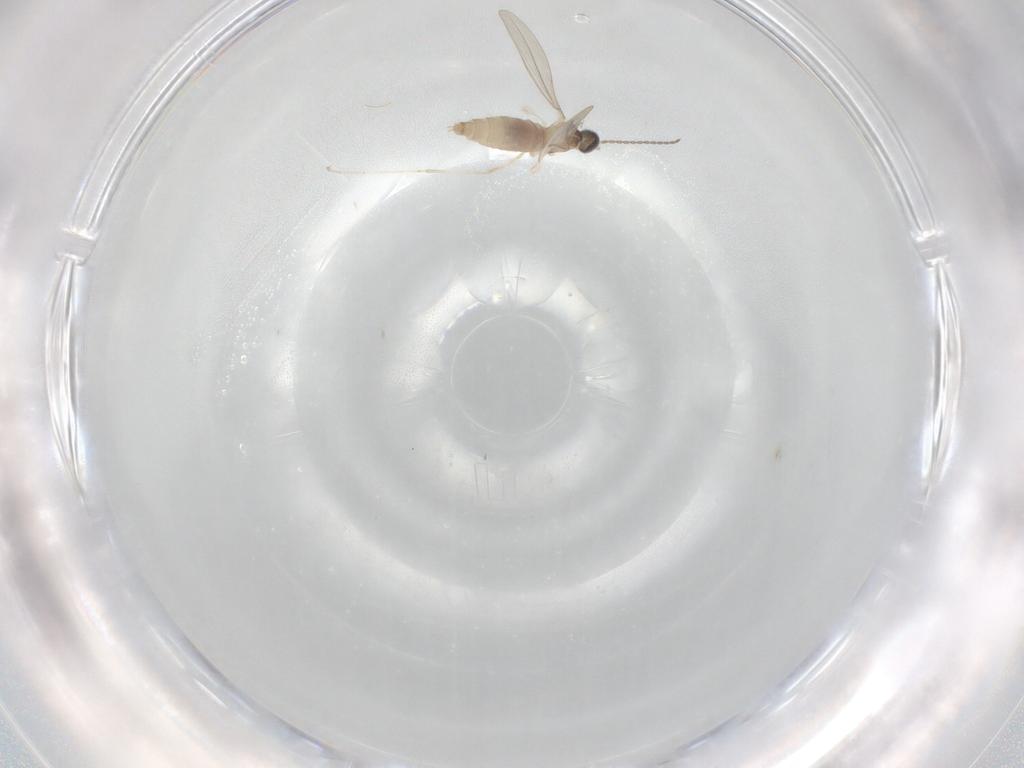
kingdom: Animalia
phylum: Arthropoda
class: Insecta
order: Diptera
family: Cecidomyiidae
